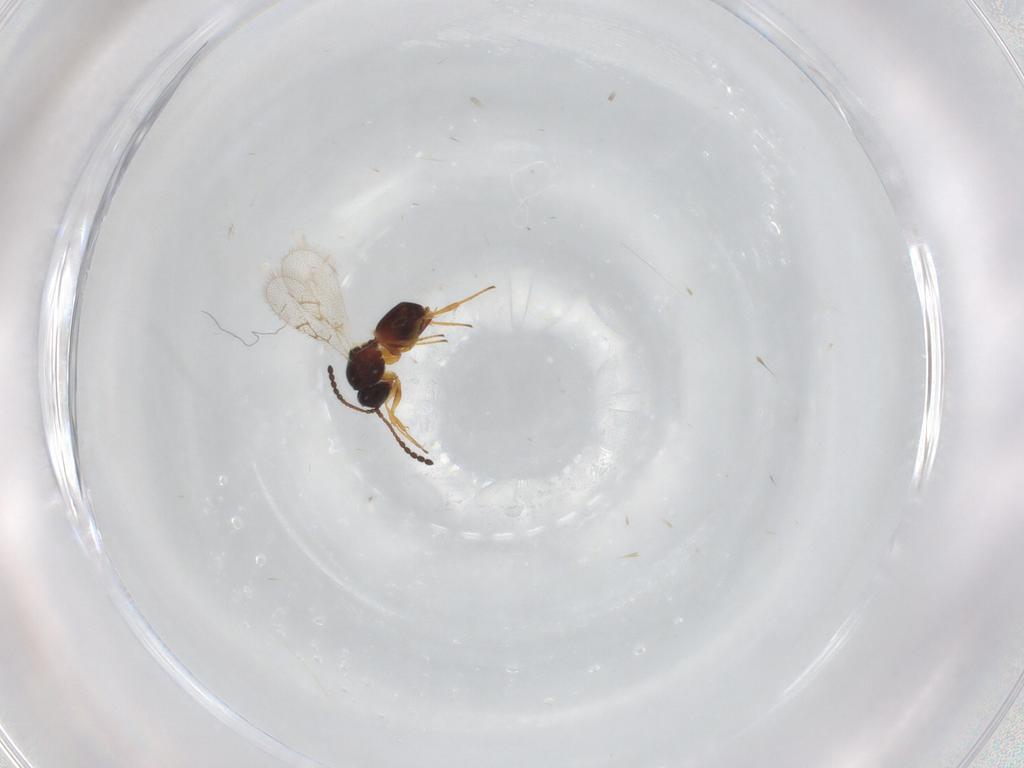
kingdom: Animalia
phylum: Arthropoda
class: Insecta
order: Hymenoptera
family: Figitidae
